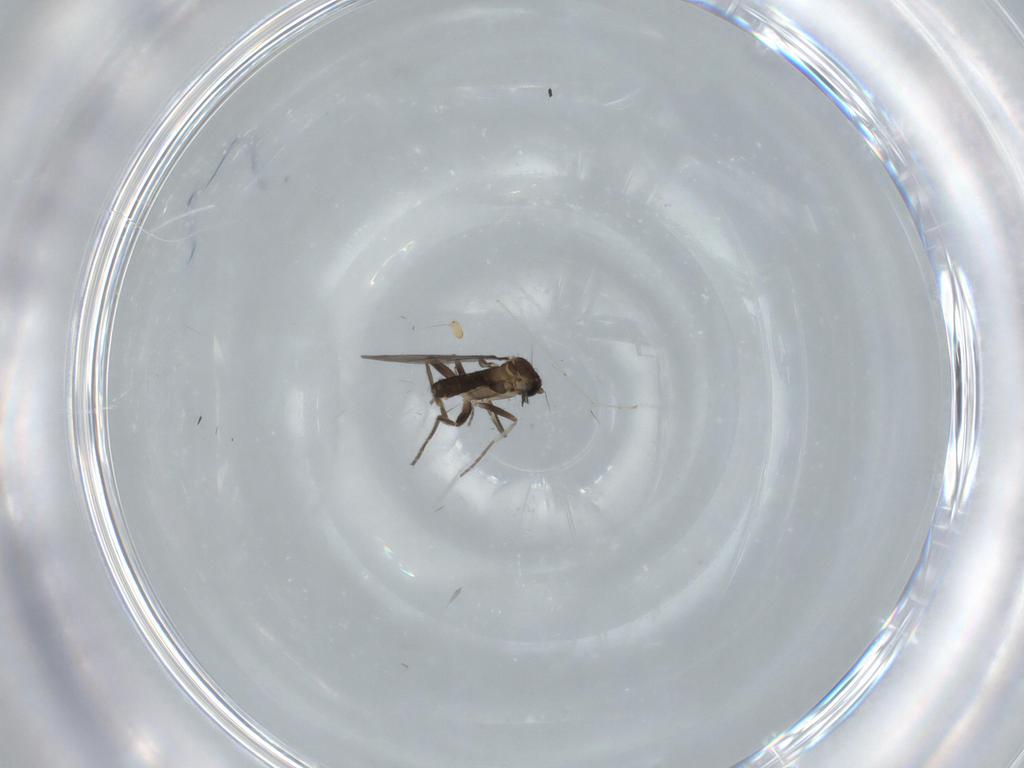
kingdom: Animalia
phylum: Arthropoda
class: Insecta
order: Diptera
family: Phoridae
